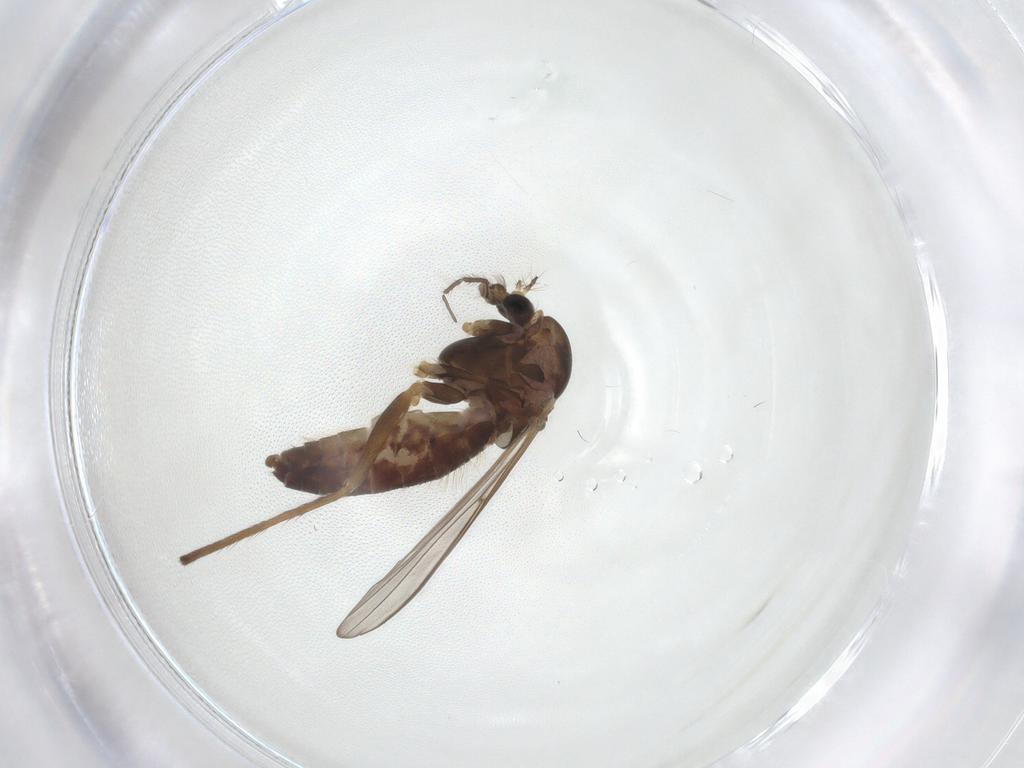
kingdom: Animalia
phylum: Arthropoda
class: Insecta
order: Diptera
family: Chironomidae
